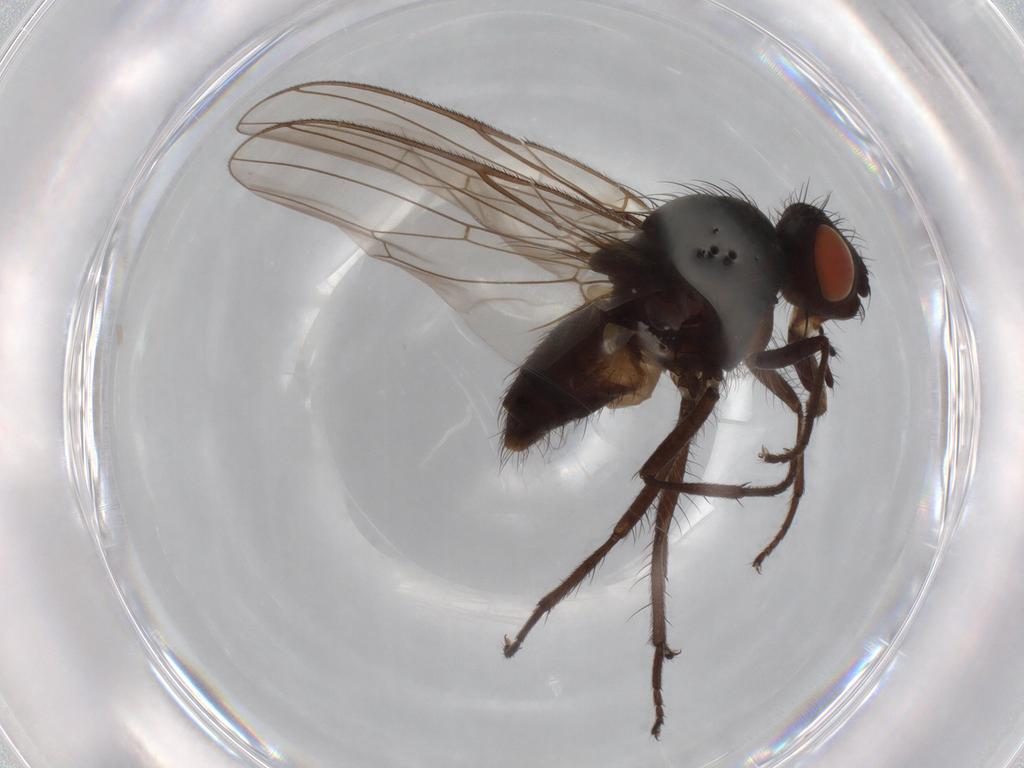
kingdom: Animalia
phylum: Arthropoda
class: Insecta
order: Diptera
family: Anthomyiidae
